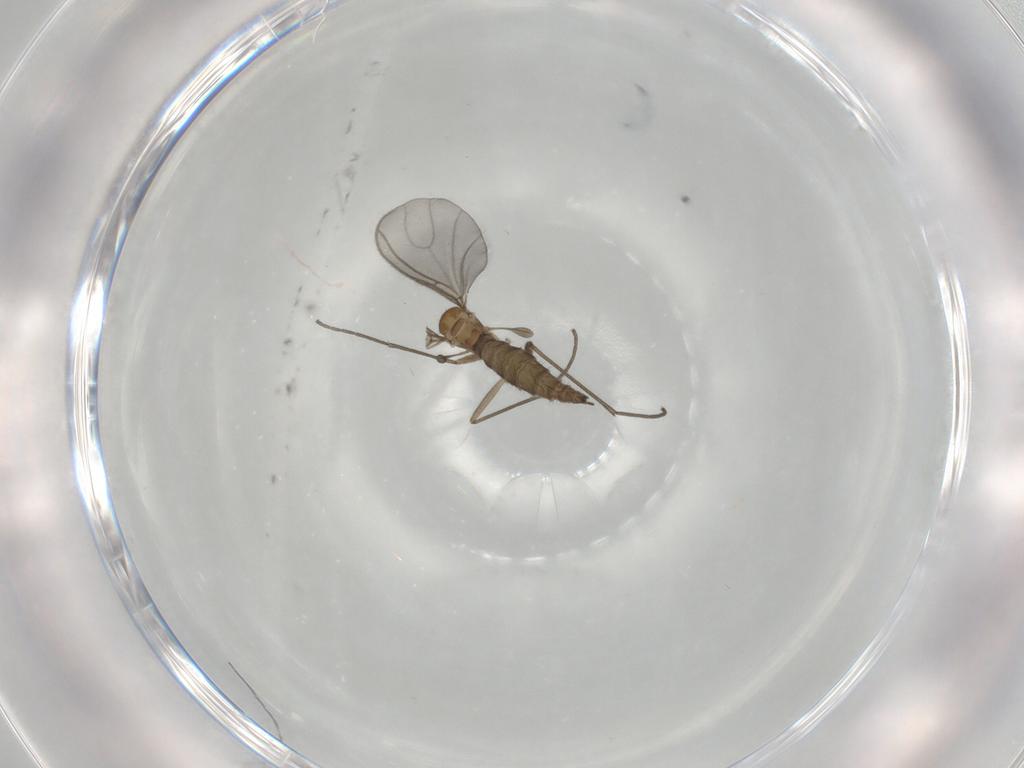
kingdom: Animalia
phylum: Arthropoda
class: Insecta
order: Diptera
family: Sciaridae
